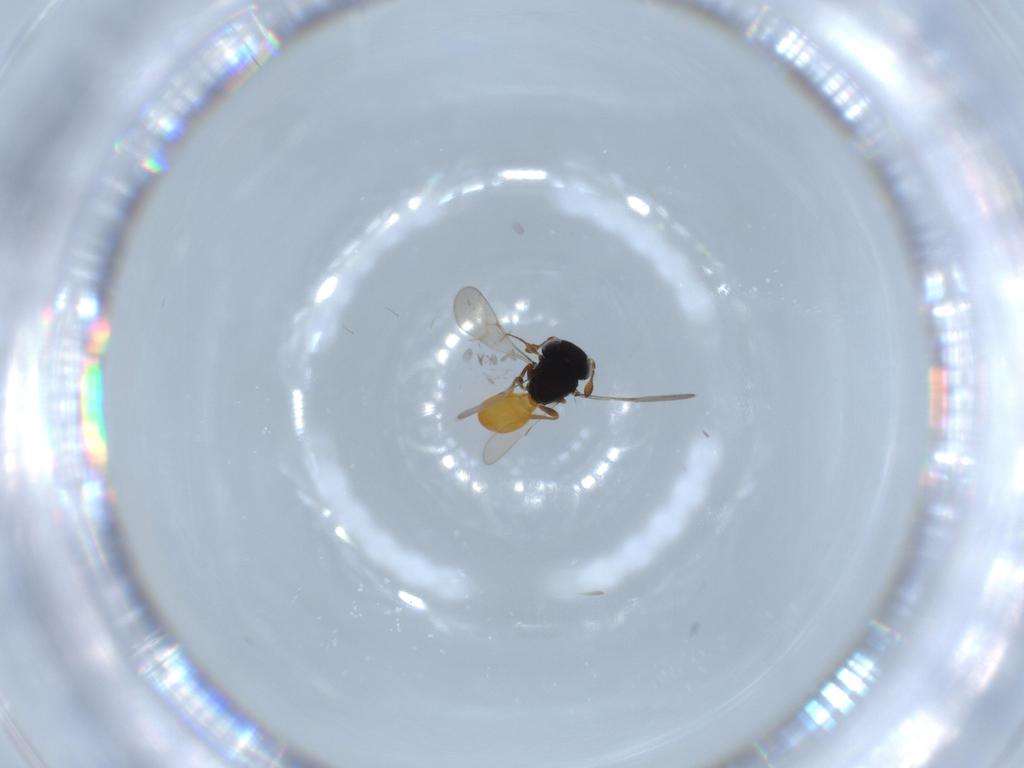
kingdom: Animalia
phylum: Arthropoda
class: Insecta
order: Hymenoptera
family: Scelionidae
